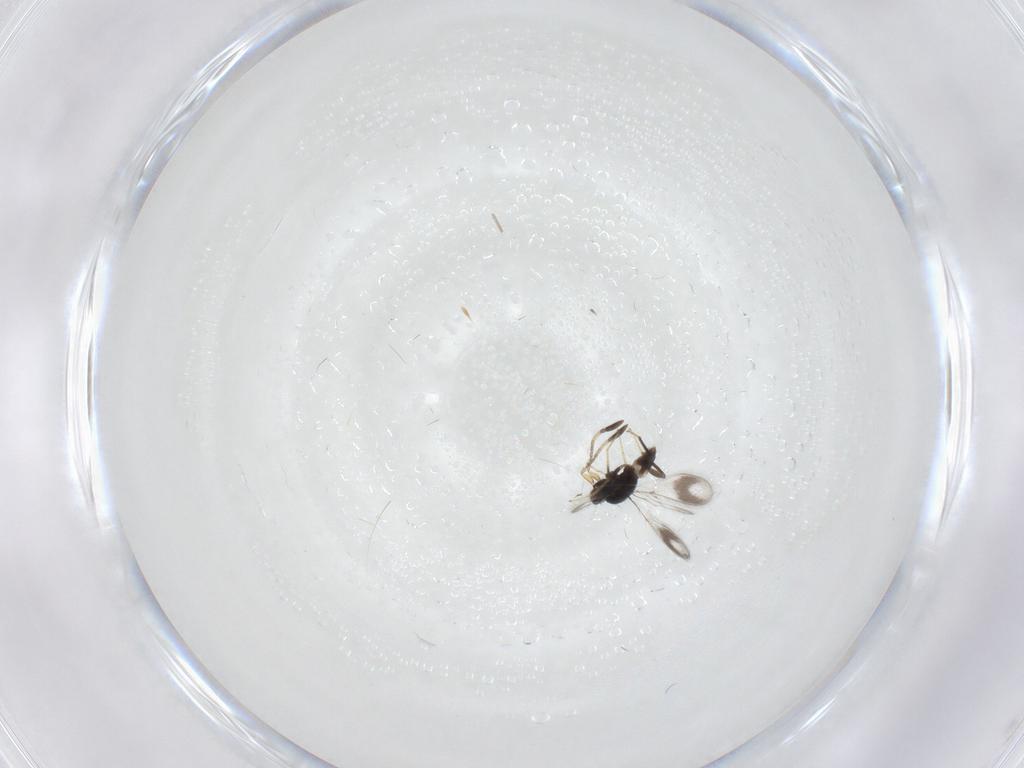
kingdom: Animalia
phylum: Arthropoda
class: Insecta
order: Hymenoptera
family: Mymaridae
